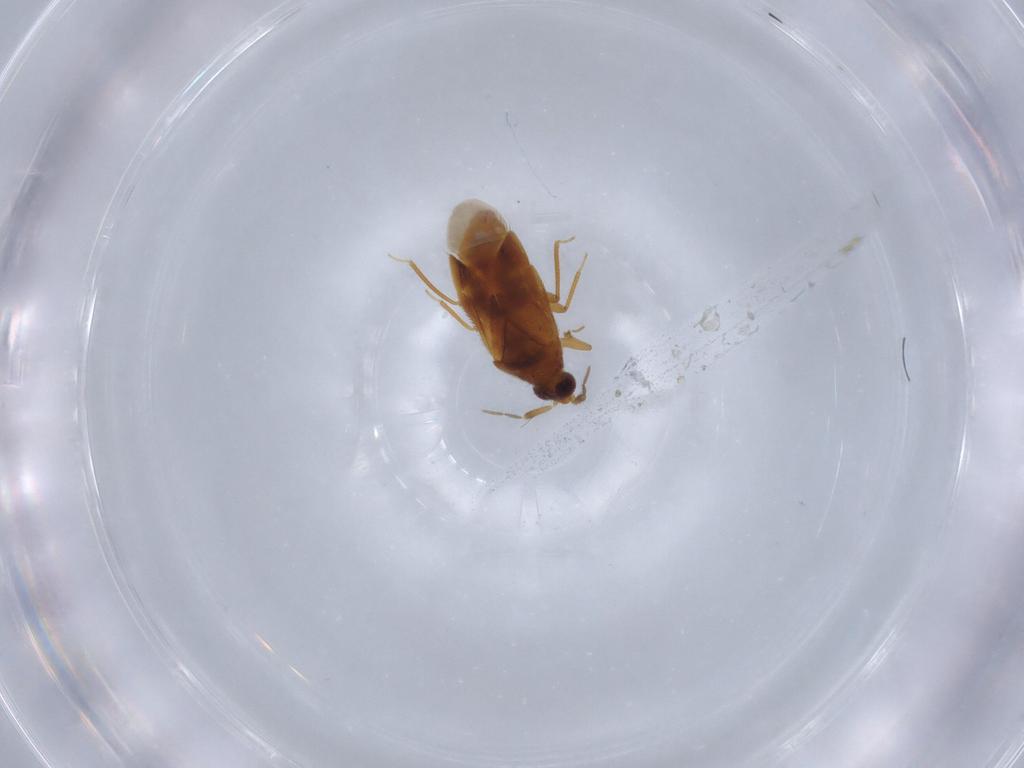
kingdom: Animalia
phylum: Arthropoda
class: Insecta
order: Hemiptera
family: Anthocoridae
